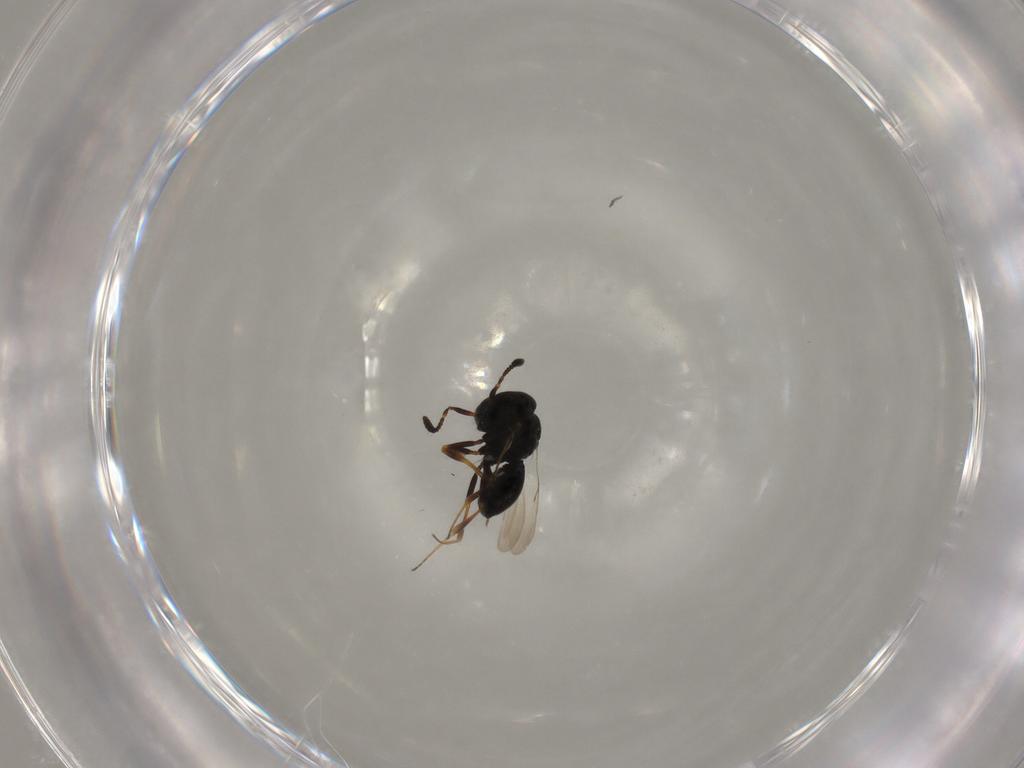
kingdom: Animalia
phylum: Arthropoda
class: Insecta
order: Hymenoptera
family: Scelionidae
